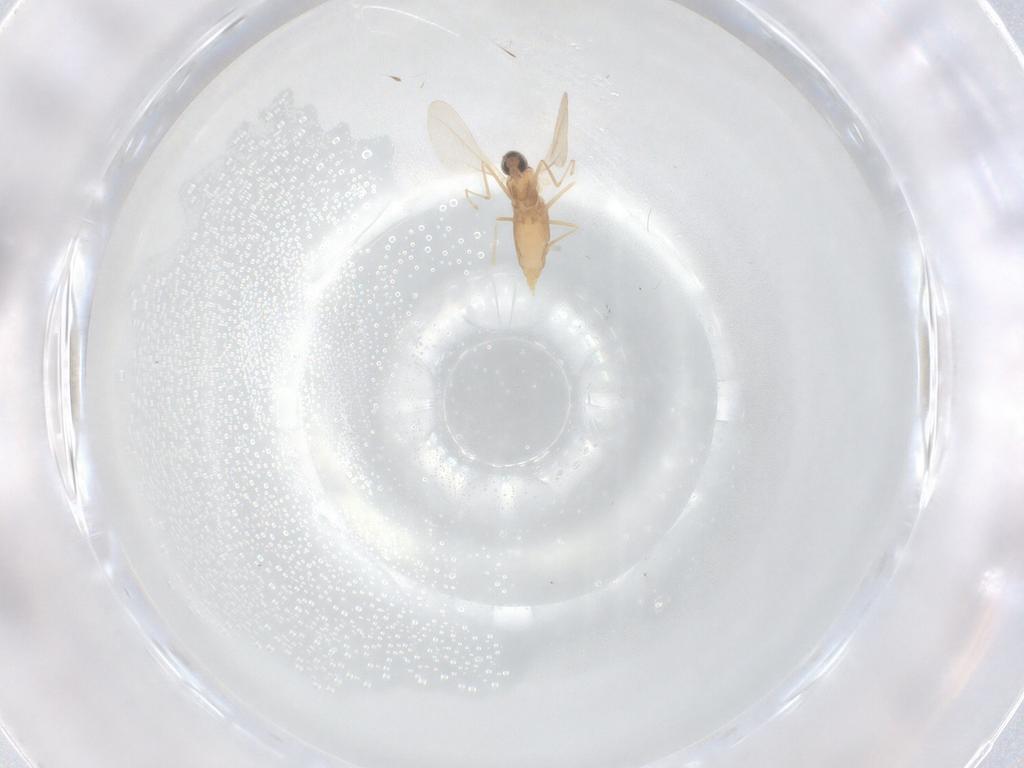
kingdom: Animalia
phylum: Arthropoda
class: Insecta
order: Diptera
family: Cecidomyiidae
